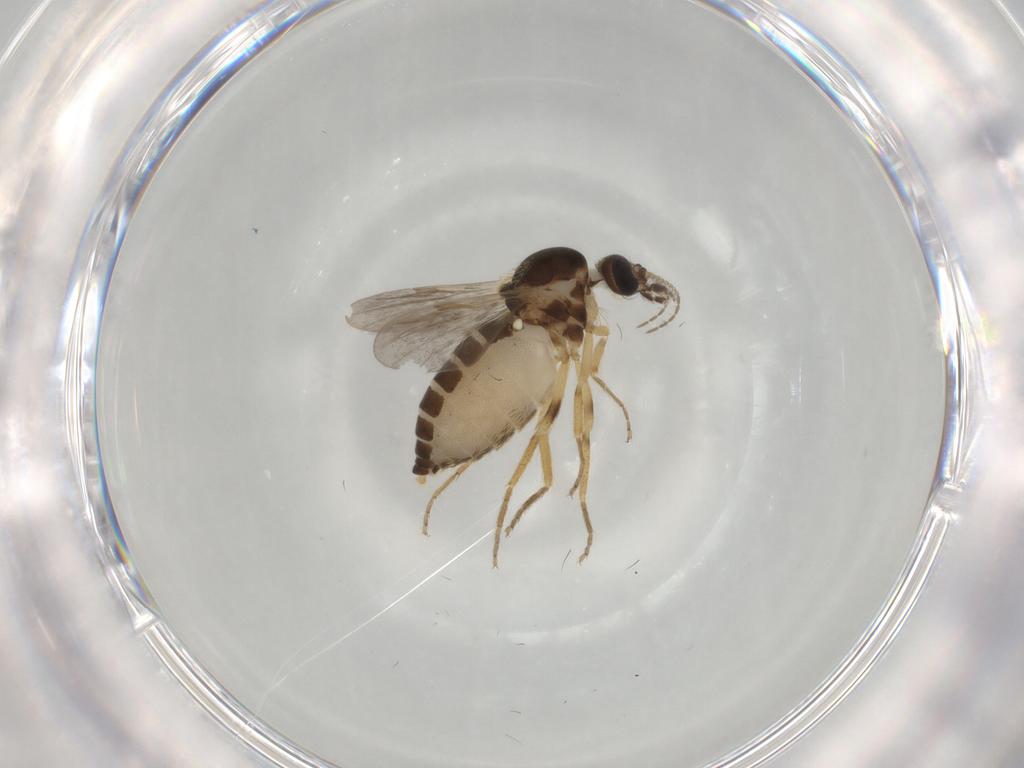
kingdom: Animalia
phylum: Arthropoda
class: Insecta
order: Diptera
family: Ceratopogonidae
